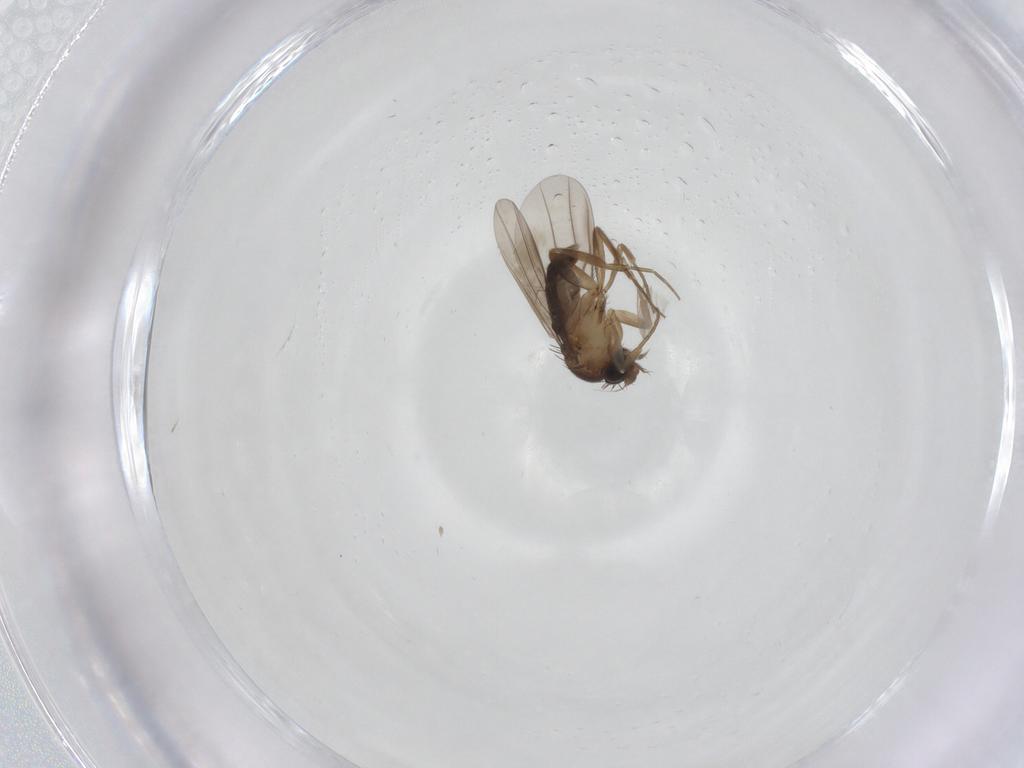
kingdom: Animalia
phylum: Arthropoda
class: Insecta
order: Diptera
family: Phoridae
